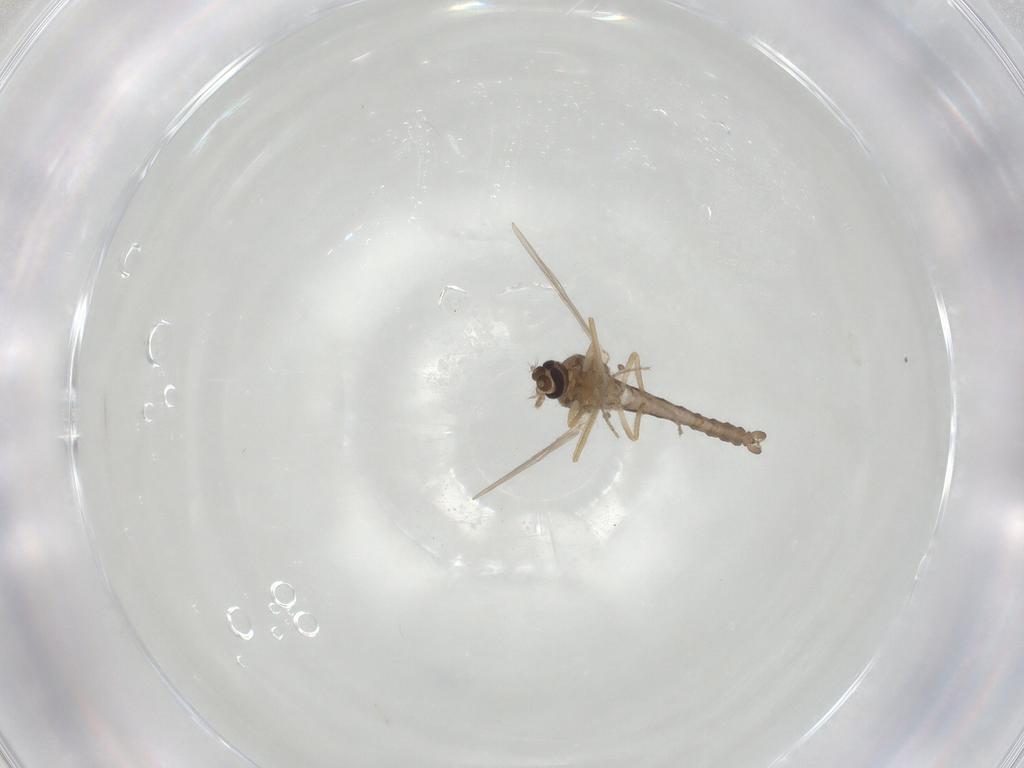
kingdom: Animalia
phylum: Arthropoda
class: Insecta
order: Diptera
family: Ceratopogonidae
